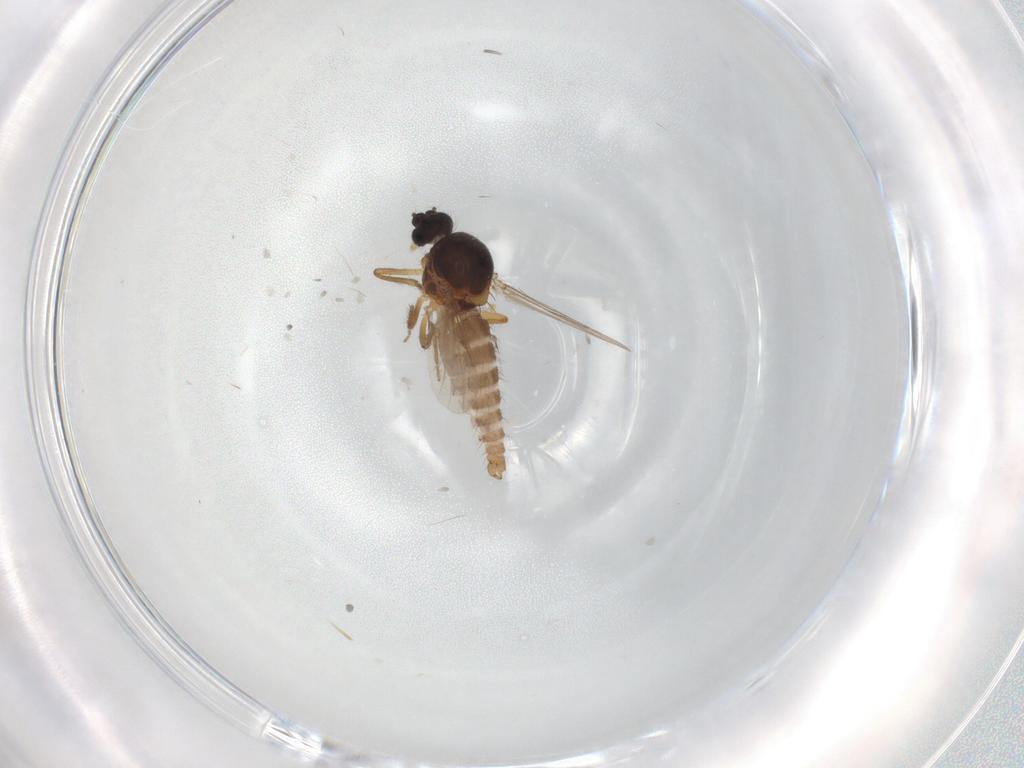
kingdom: Animalia
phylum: Arthropoda
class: Insecta
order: Diptera
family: Ceratopogonidae
